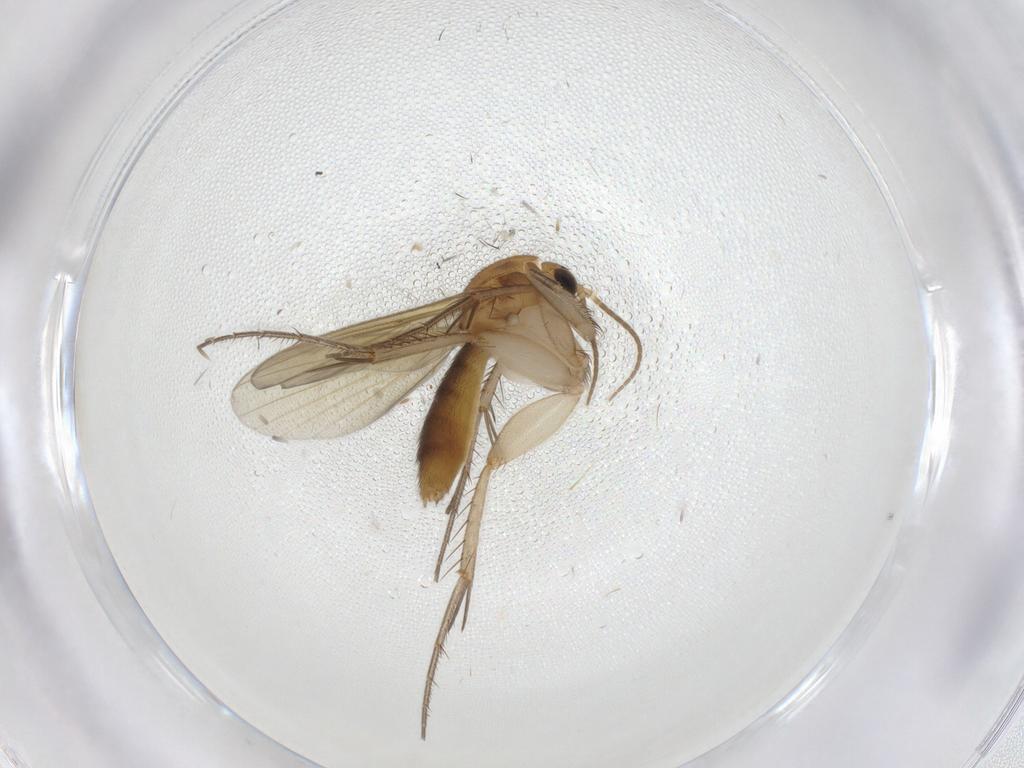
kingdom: Animalia
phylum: Arthropoda
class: Insecta
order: Diptera
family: Mycetophilidae
